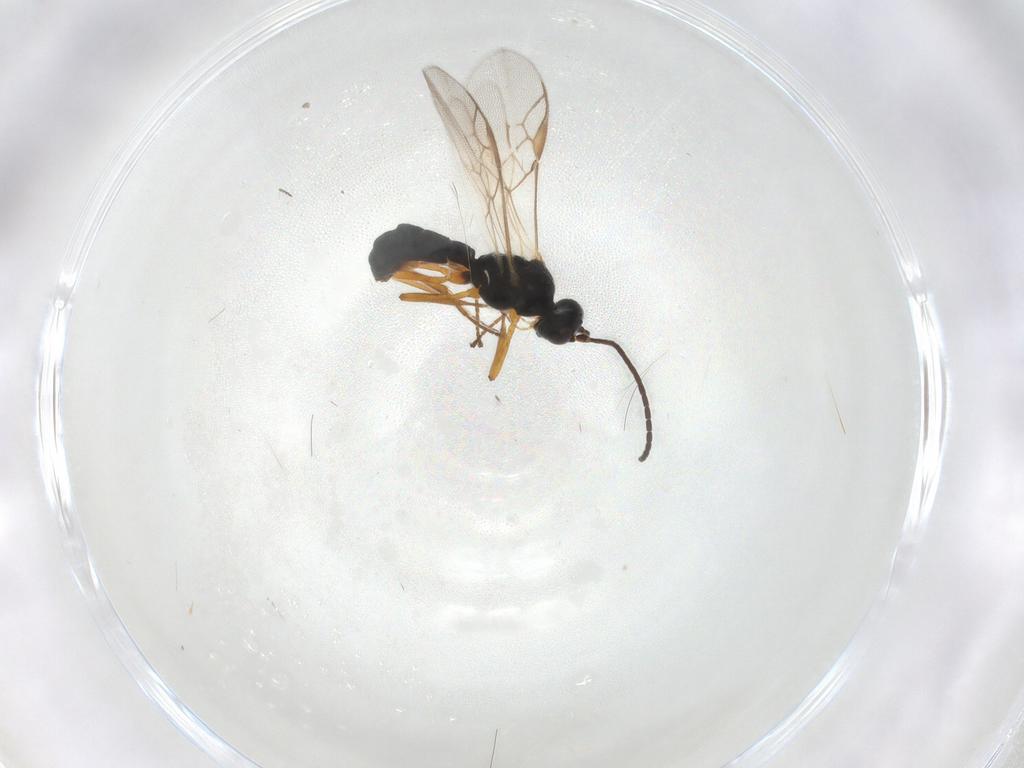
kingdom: Animalia
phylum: Arthropoda
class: Insecta
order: Hymenoptera
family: Braconidae
